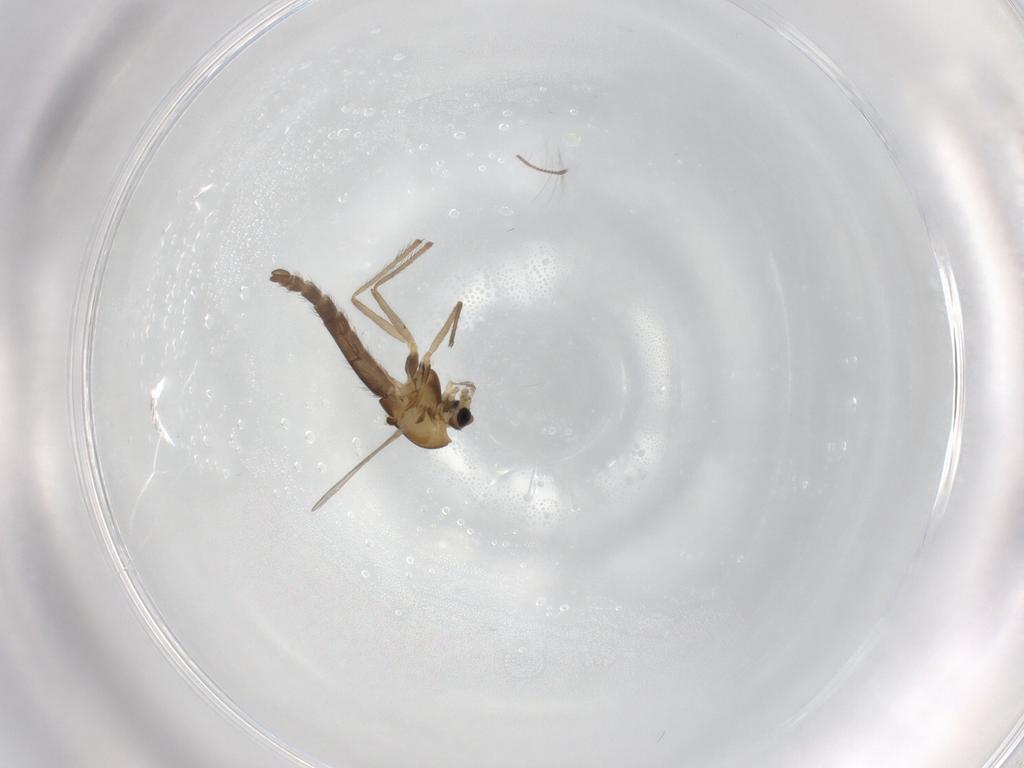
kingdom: Animalia
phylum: Arthropoda
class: Insecta
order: Diptera
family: Chironomidae
